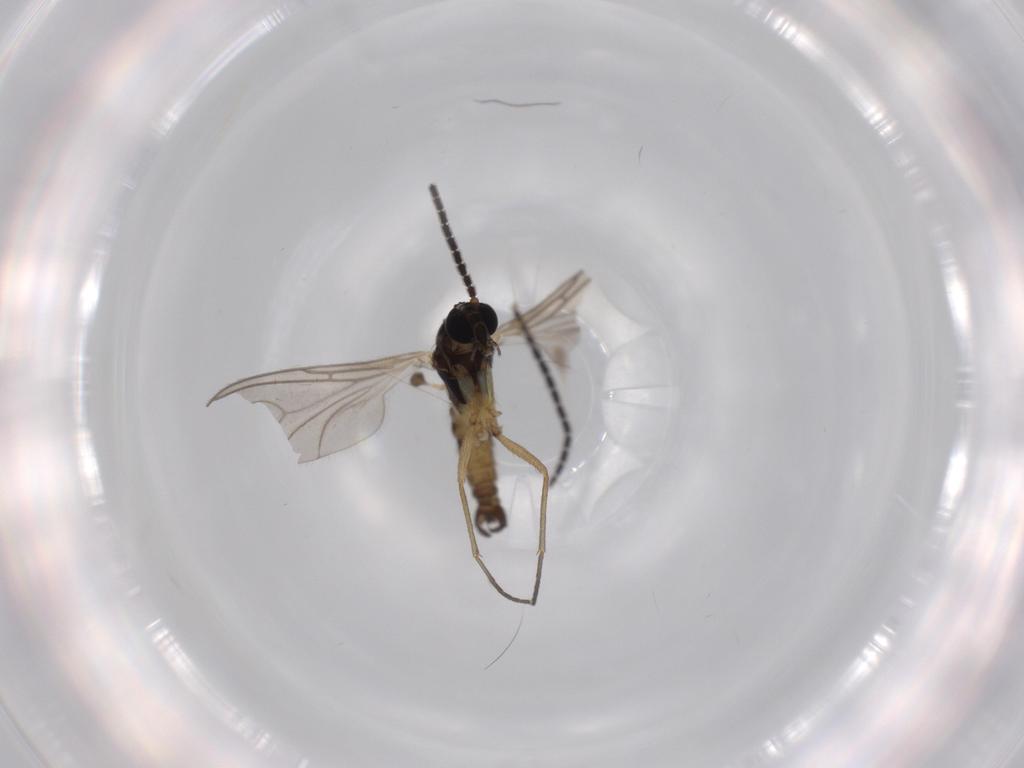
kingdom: Animalia
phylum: Arthropoda
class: Insecta
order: Diptera
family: Sciaridae
